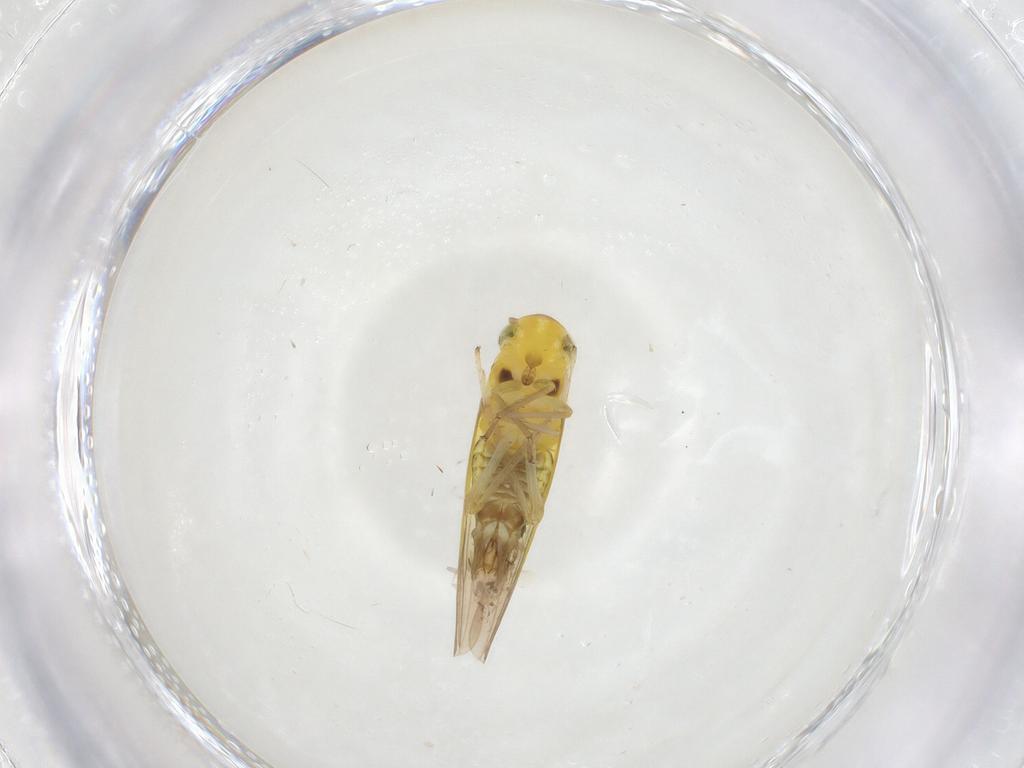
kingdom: Animalia
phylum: Arthropoda
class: Insecta
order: Hemiptera
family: Cicadellidae
